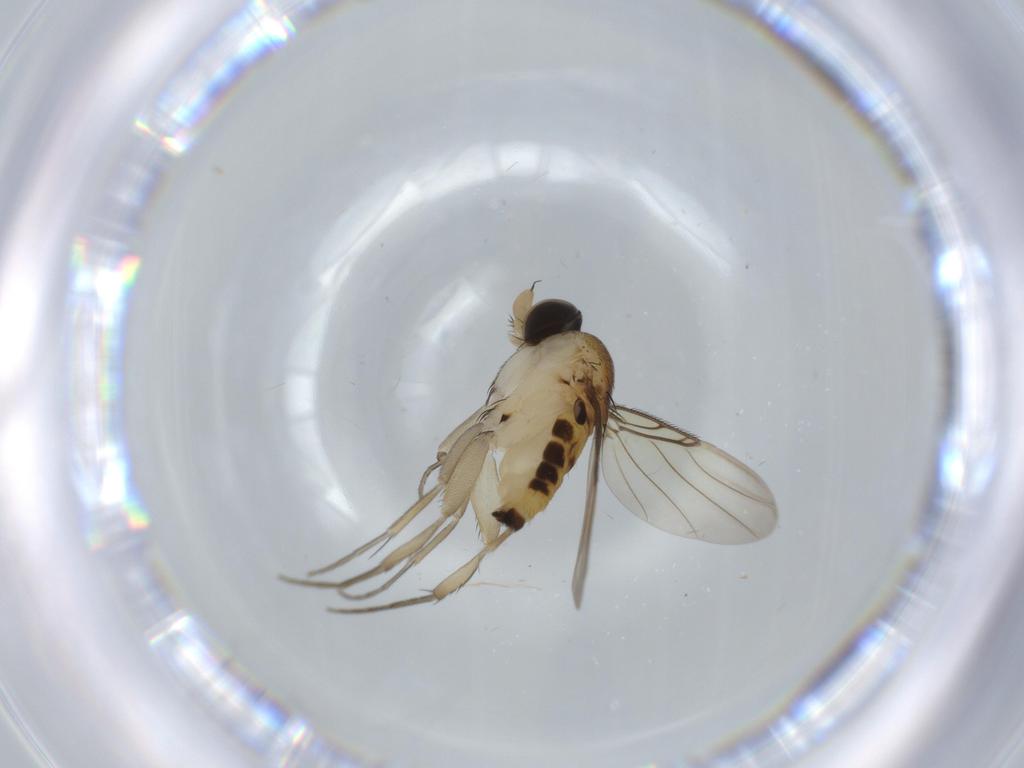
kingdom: Animalia
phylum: Arthropoda
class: Insecta
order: Diptera
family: Phoridae
